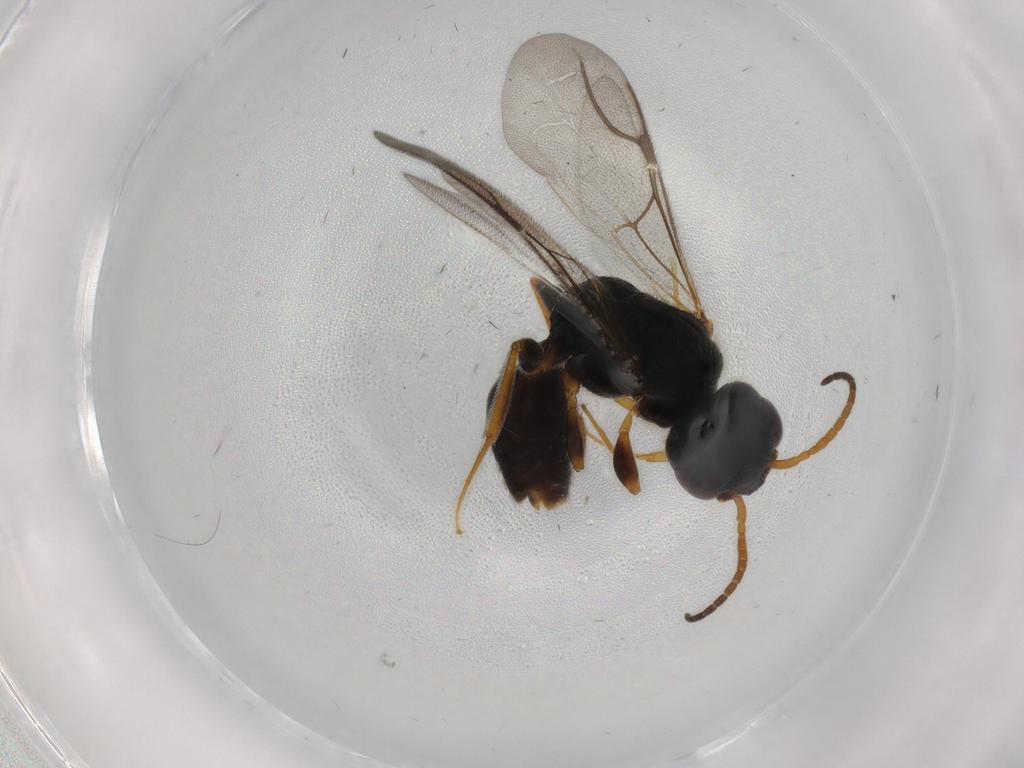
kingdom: Animalia
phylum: Arthropoda
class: Insecta
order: Hymenoptera
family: Bethylidae
